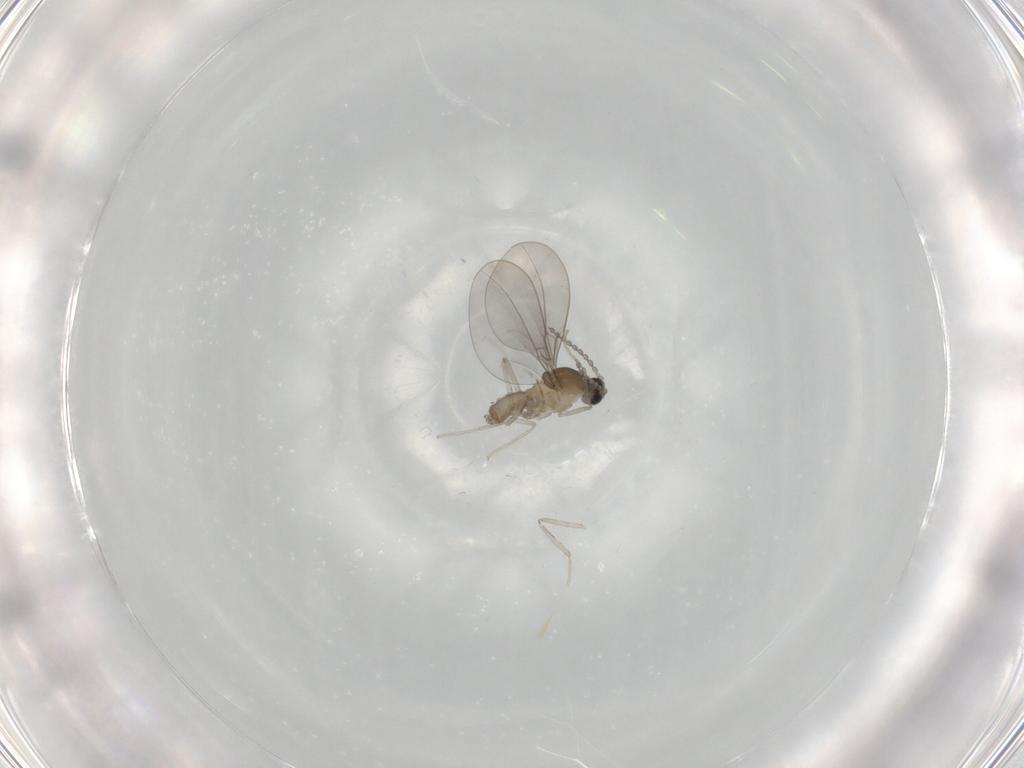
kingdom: Animalia
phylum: Arthropoda
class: Insecta
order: Diptera
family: Cecidomyiidae
